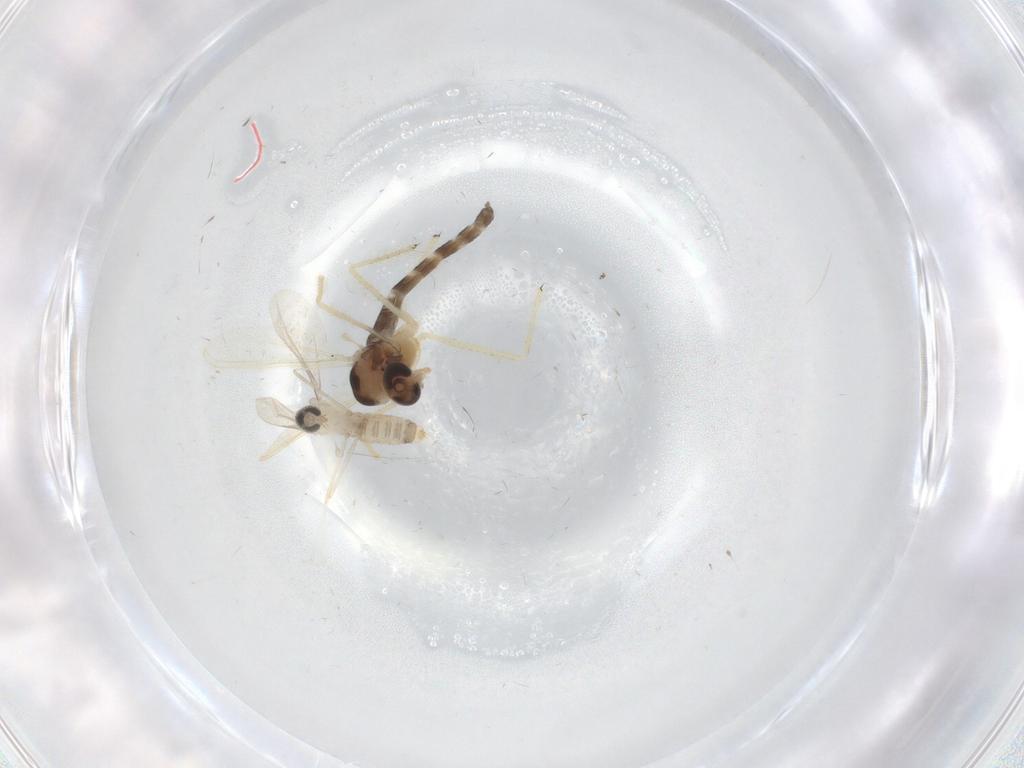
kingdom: Animalia
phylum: Arthropoda
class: Insecta
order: Diptera
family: Chironomidae
